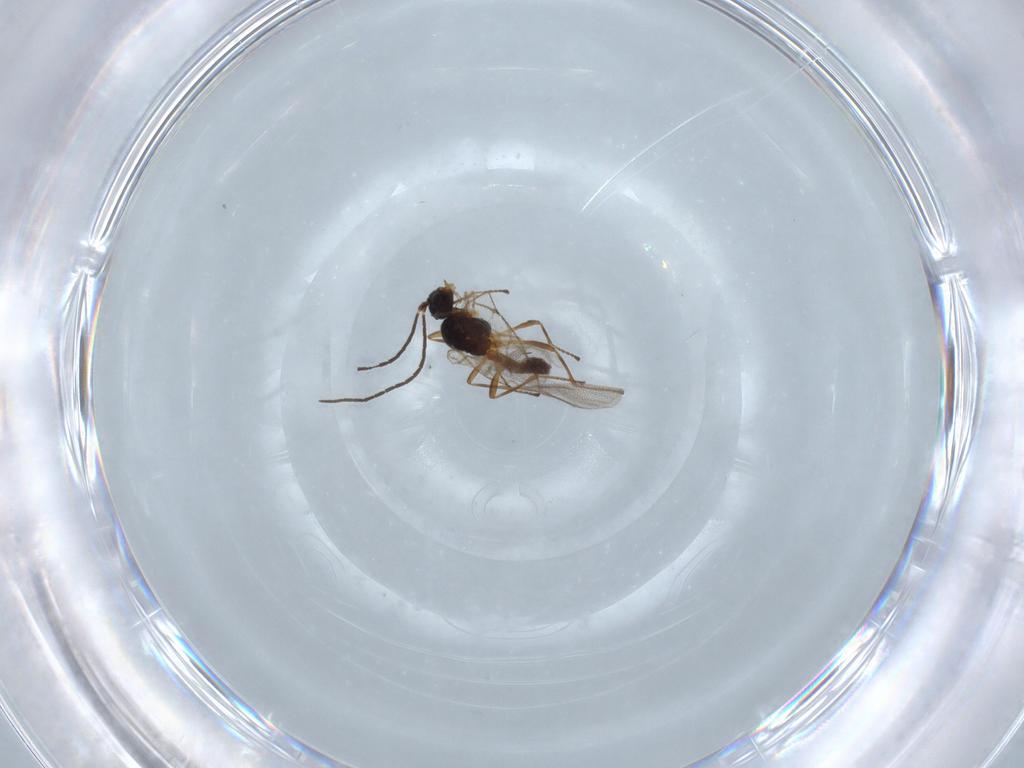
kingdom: Animalia
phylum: Arthropoda
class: Insecta
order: Hymenoptera
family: Braconidae
